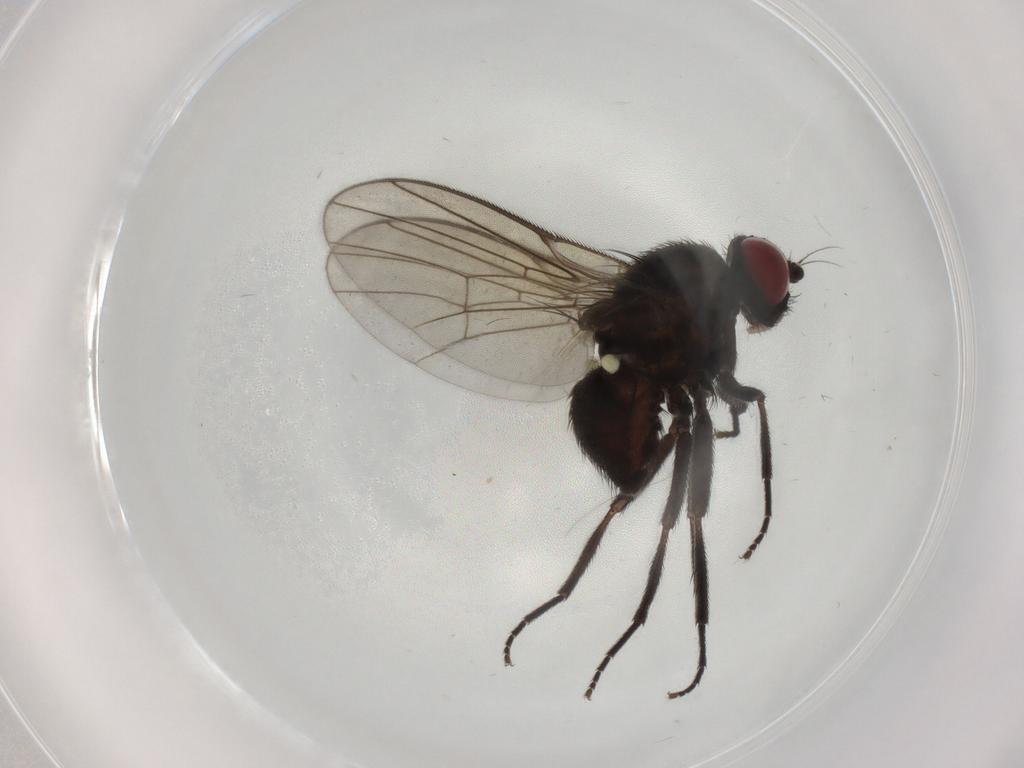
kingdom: Animalia
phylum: Arthropoda
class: Insecta
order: Diptera
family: Agromyzidae
